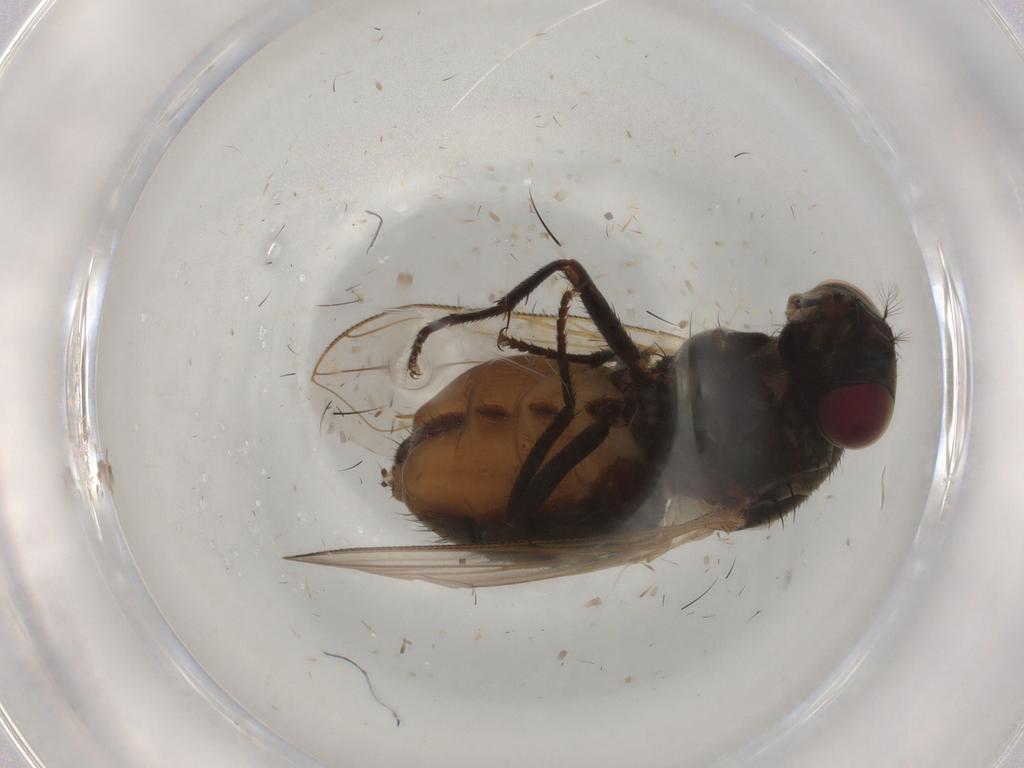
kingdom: Animalia
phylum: Arthropoda
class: Insecta
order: Diptera
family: Muscidae
